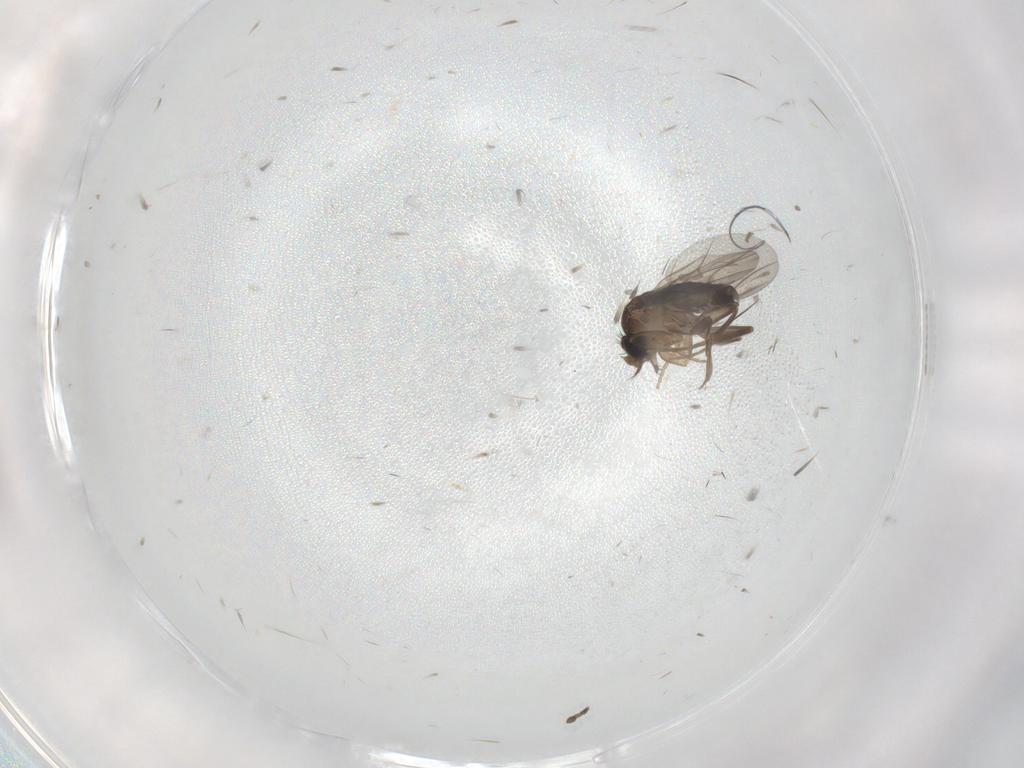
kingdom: Animalia
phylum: Arthropoda
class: Insecta
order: Diptera
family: Phoridae
